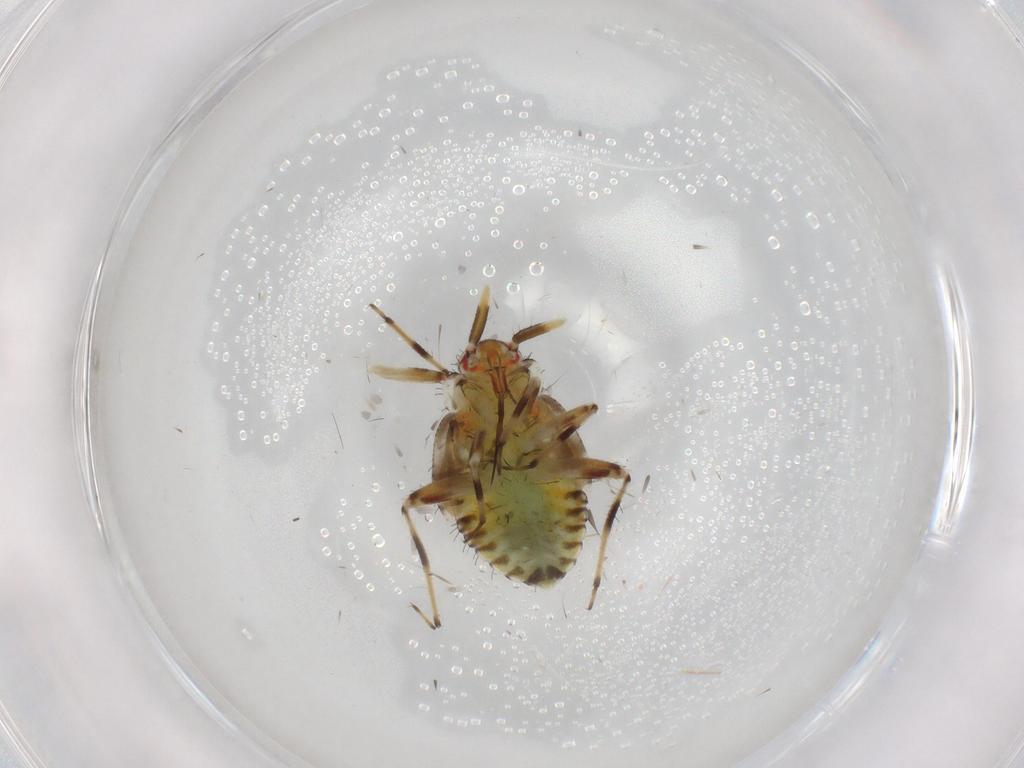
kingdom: Animalia
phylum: Arthropoda
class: Insecta
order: Hemiptera
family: Miridae
